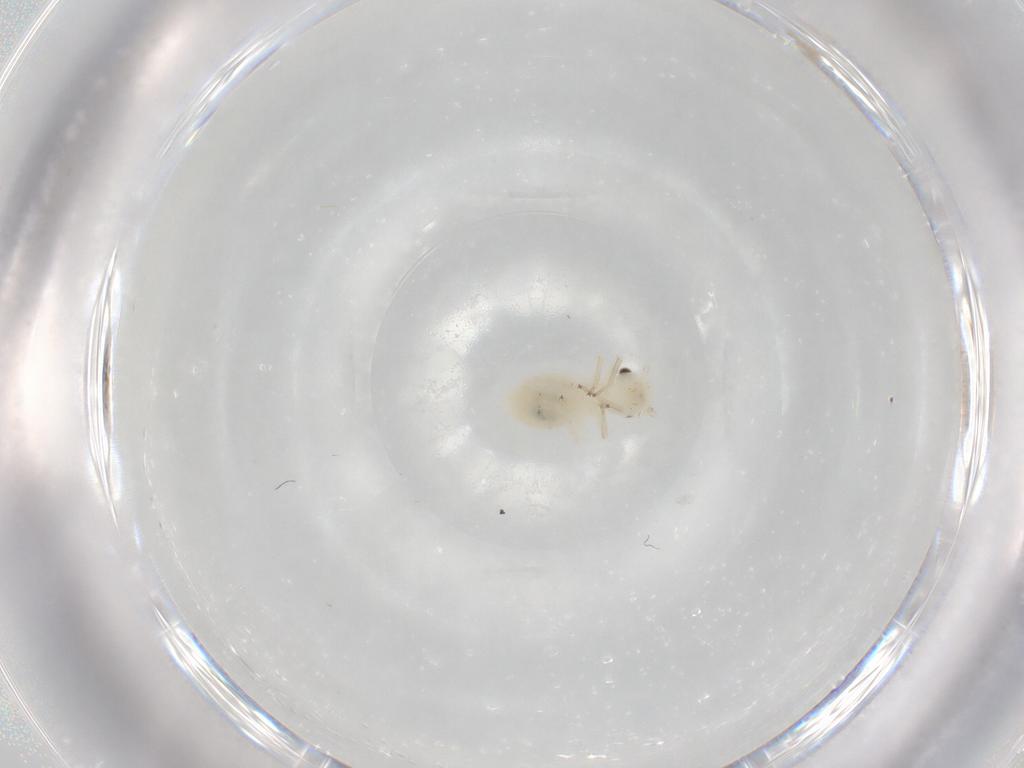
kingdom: Animalia
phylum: Arthropoda
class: Insecta
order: Psocodea
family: Caeciliusidae
